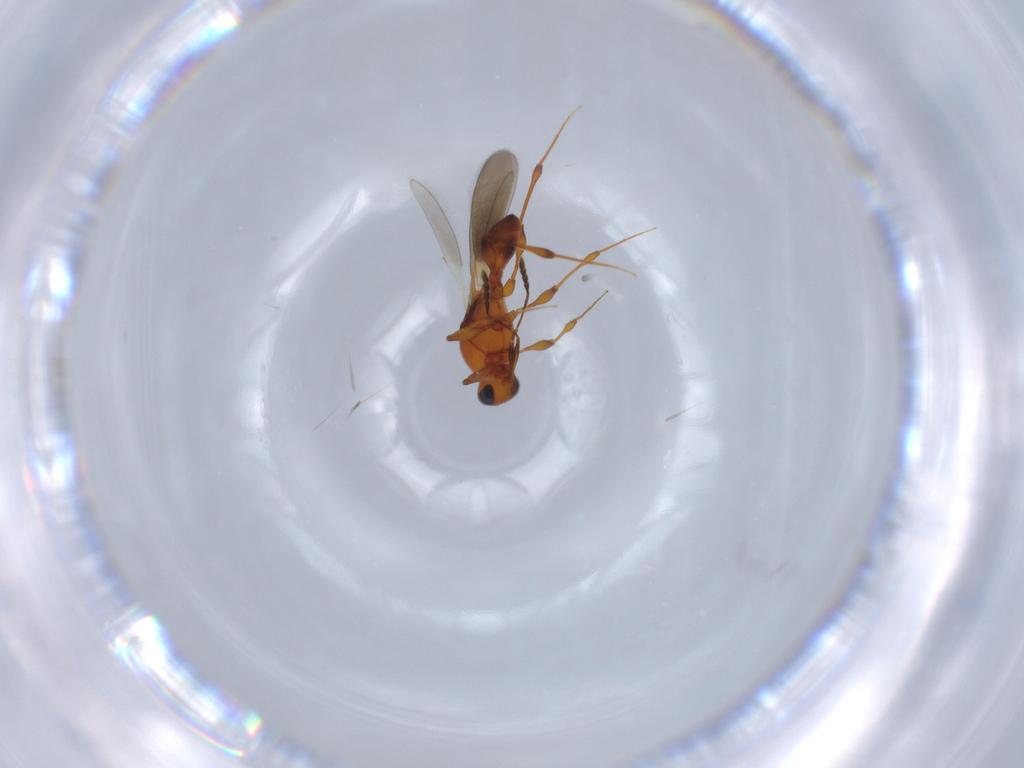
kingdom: Animalia
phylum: Arthropoda
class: Insecta
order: Hymenoptera
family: Platygastridae
